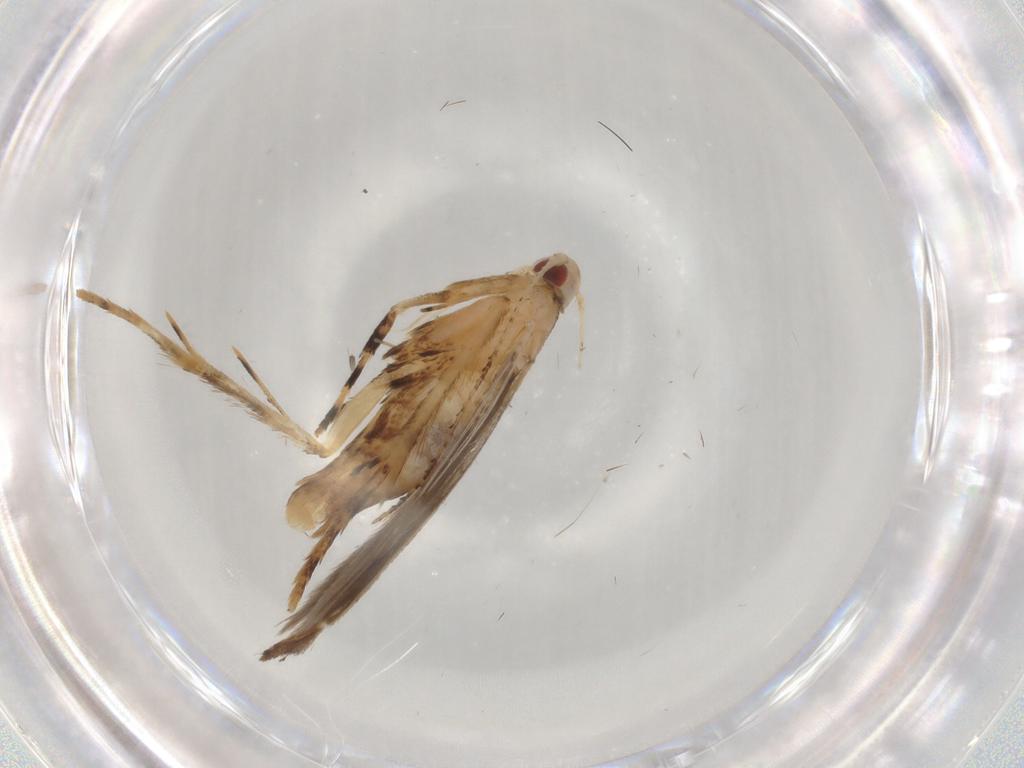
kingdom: Animalia
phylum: Arthropoda
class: Insecta
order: Lepidoptera
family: Cosmopterigidae
